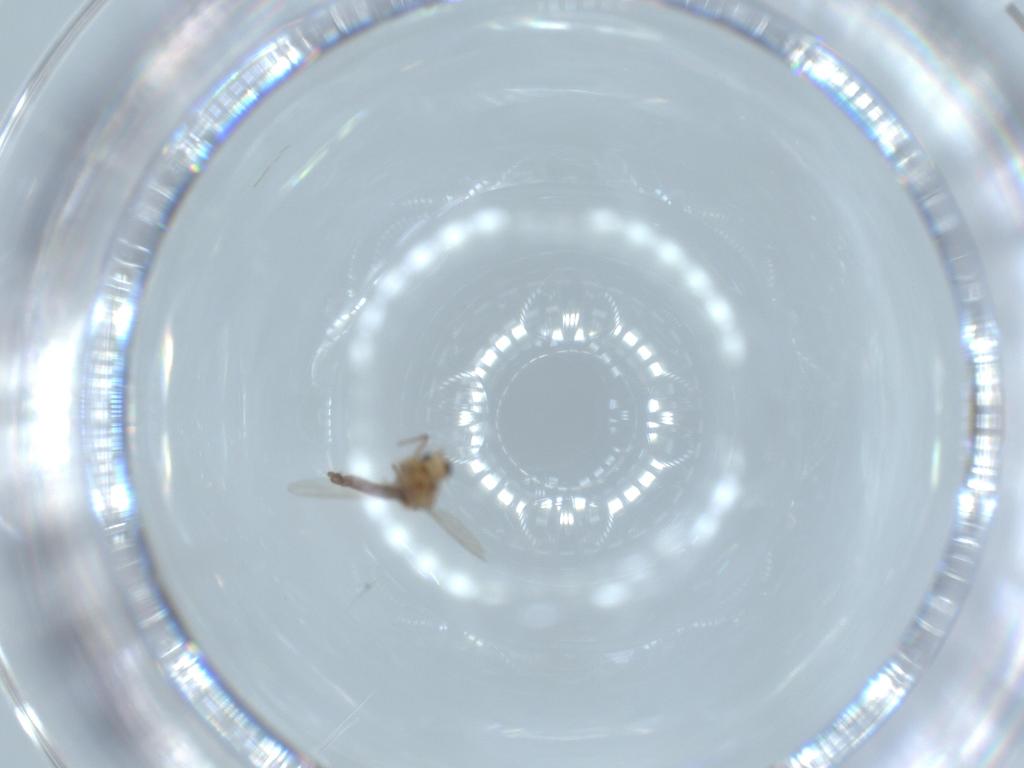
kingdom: Animalia
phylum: Arthropoda
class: Insecta
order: Diptera
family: Chironomidae
